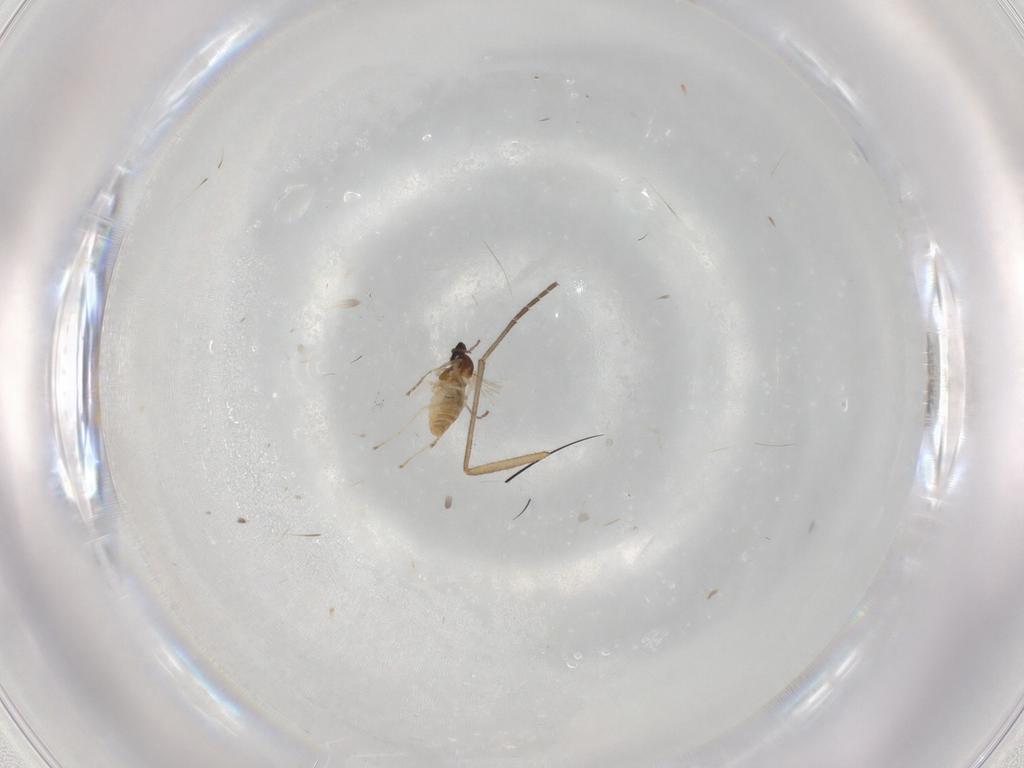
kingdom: Animalia
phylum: Arthropoda
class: Insecta
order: Diptera
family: Cecidomyiidae
